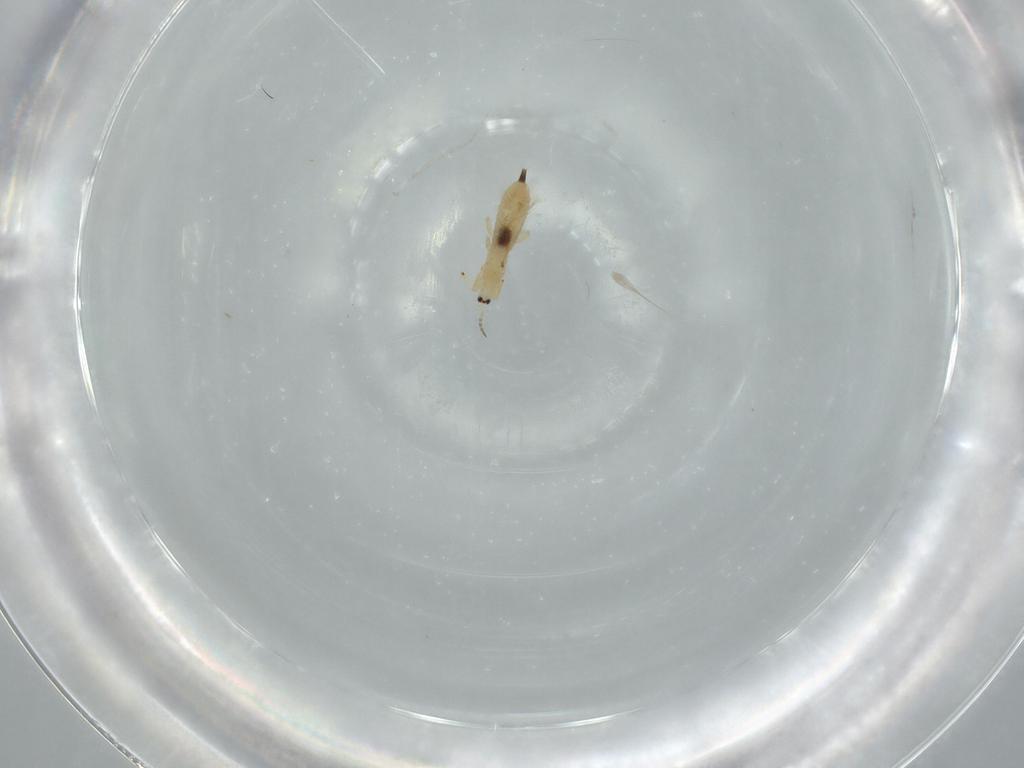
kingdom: Animalia
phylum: Arthropoda
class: Insecta
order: Thysanoptera
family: Phlaeothripidae
